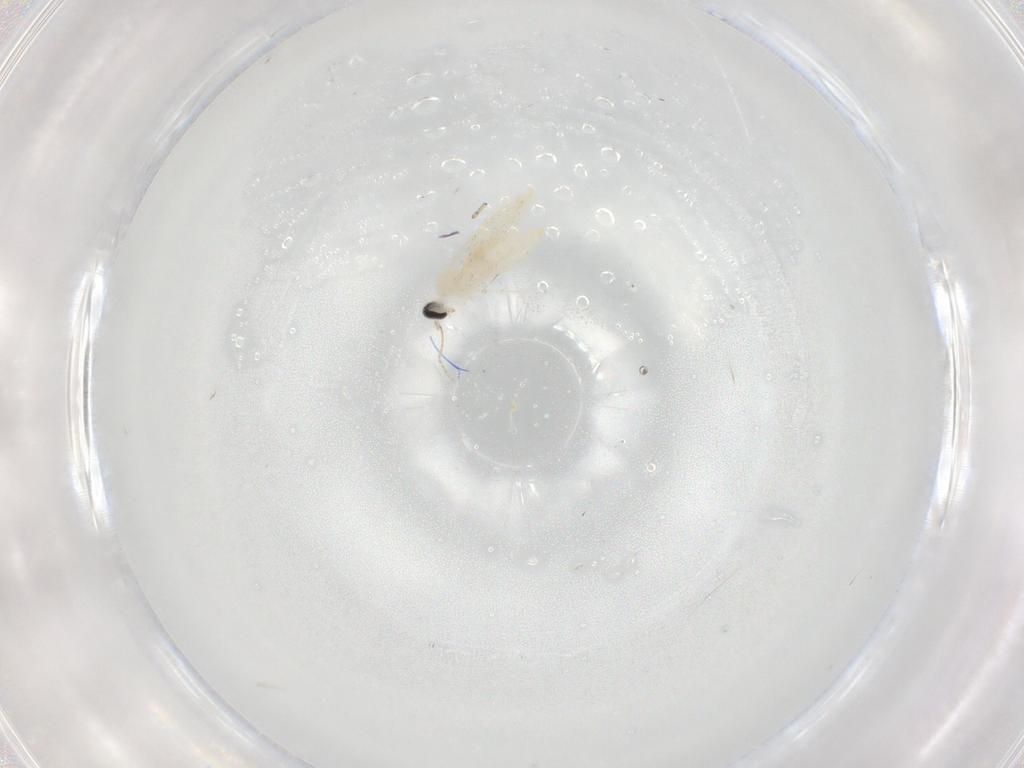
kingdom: Animalia
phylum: Arthropoda
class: Insecta
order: Diptera
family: Cecidomyiidae
